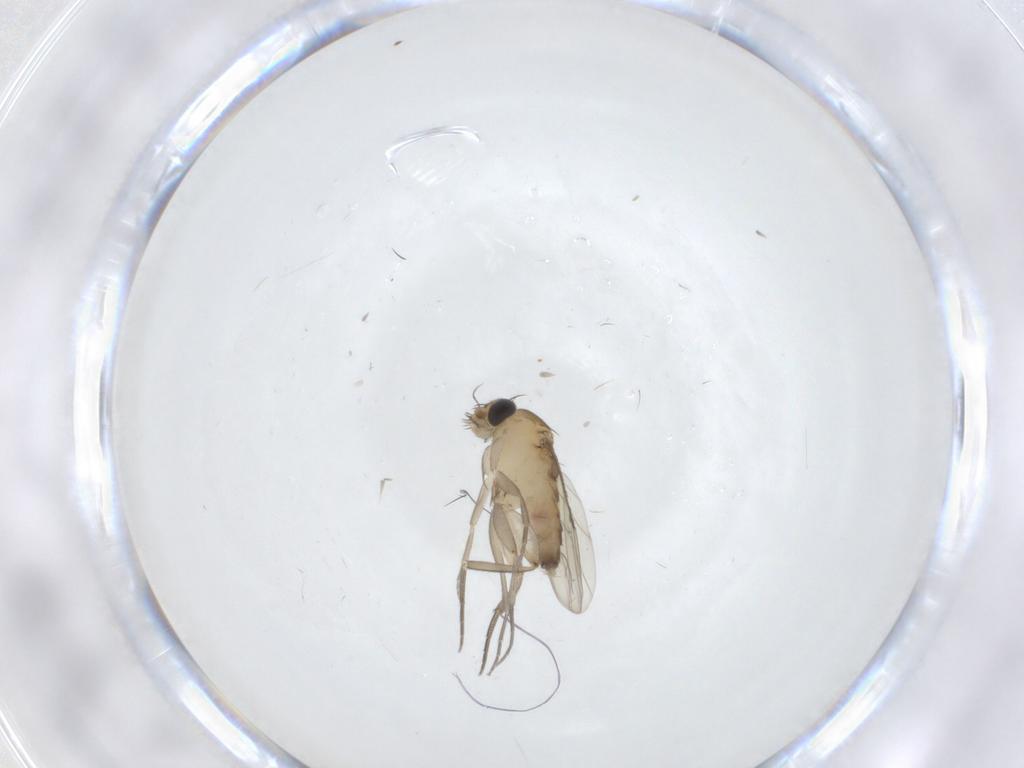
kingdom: Animalia
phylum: Arthropoda
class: Insecta
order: Diptera
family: Phoridae
